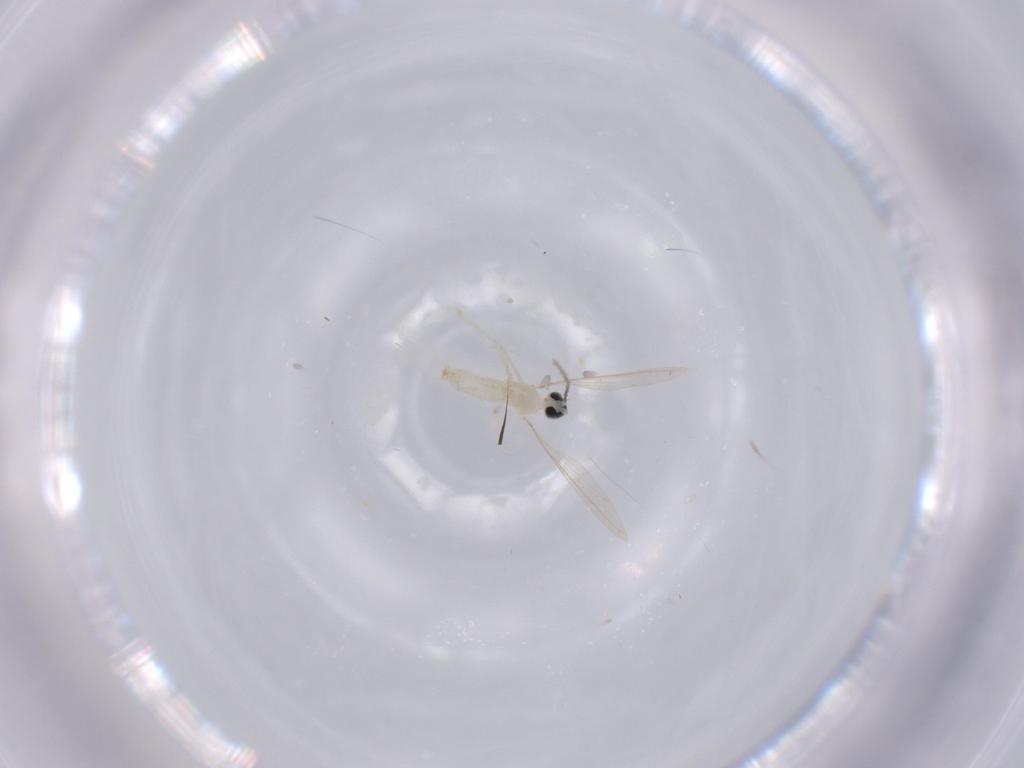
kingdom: Animalia
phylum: Arthropoda
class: Insecta
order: Diptera
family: Cecidomyiidae
